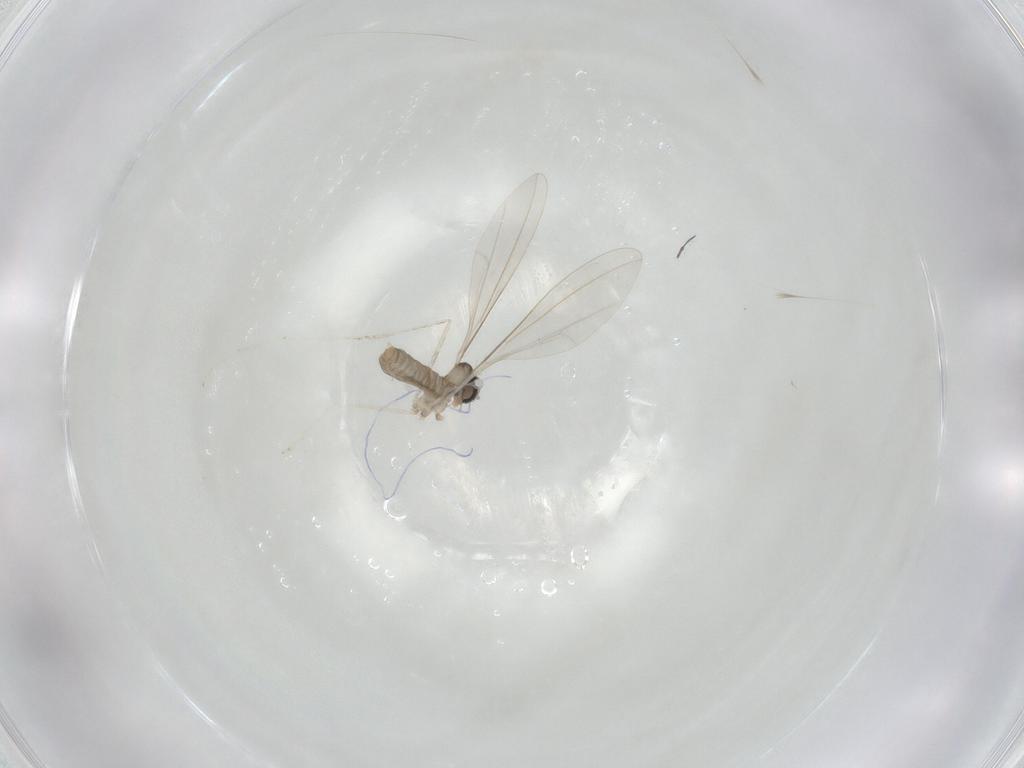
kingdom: Animalia
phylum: Arthropoda
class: Insecta
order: Diptera
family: Cecidomyiidae
